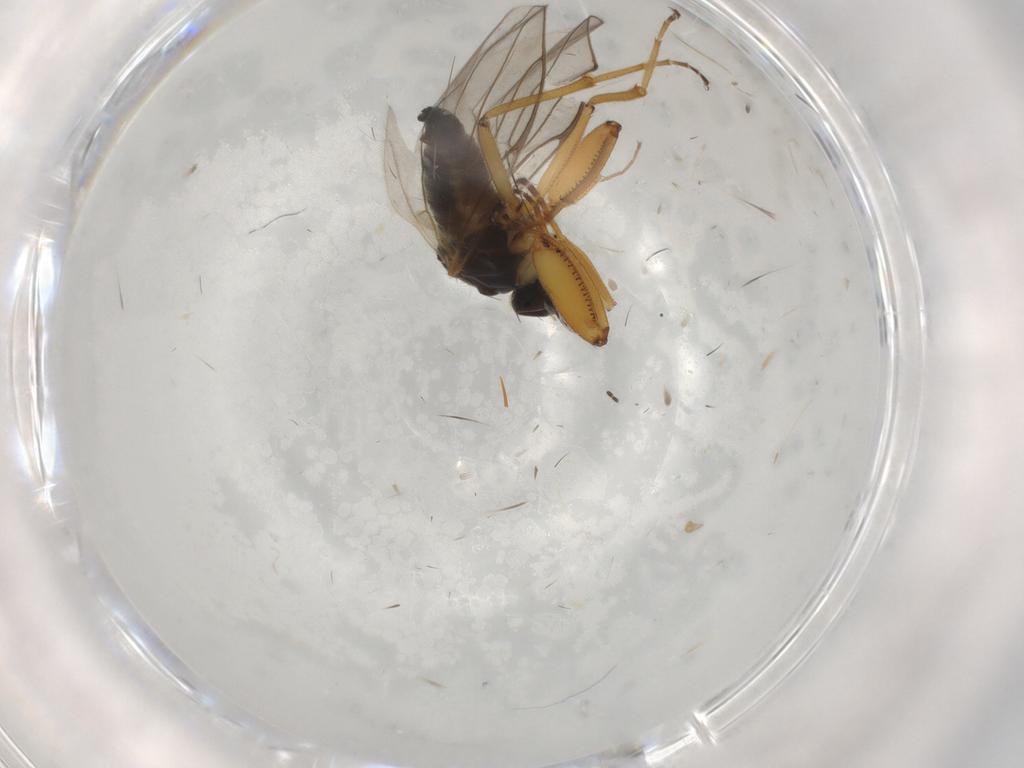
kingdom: Animalia
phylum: Arthropoda
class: Insecta
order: Diptera
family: Hybotidae
